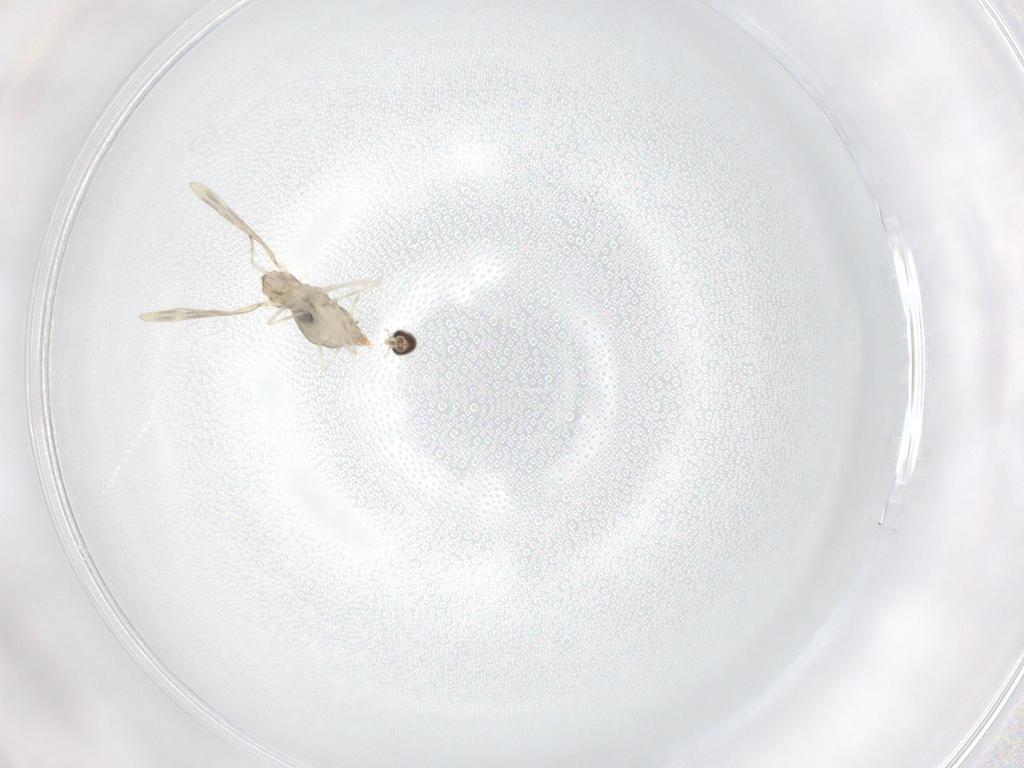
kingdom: Animalia
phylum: Arthropoda
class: Insecta
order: Diptera
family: Cecidomyiidae
